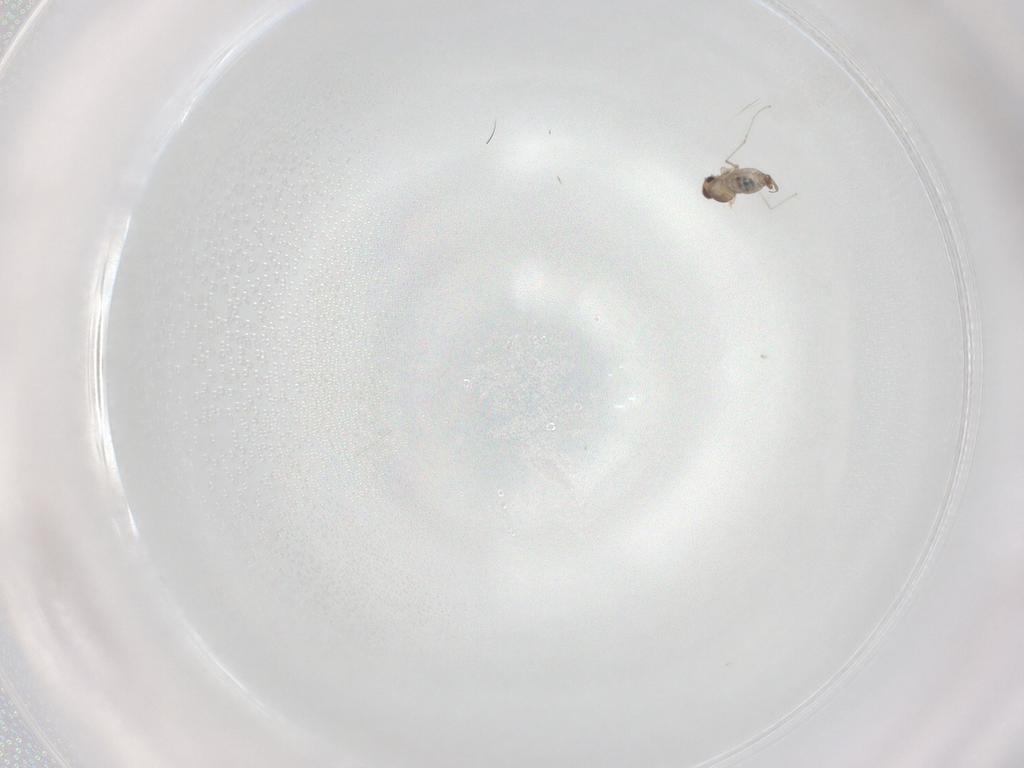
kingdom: Animalia
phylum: Arthropoda
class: Insecta
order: Diptera
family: Cecidomyiidae
